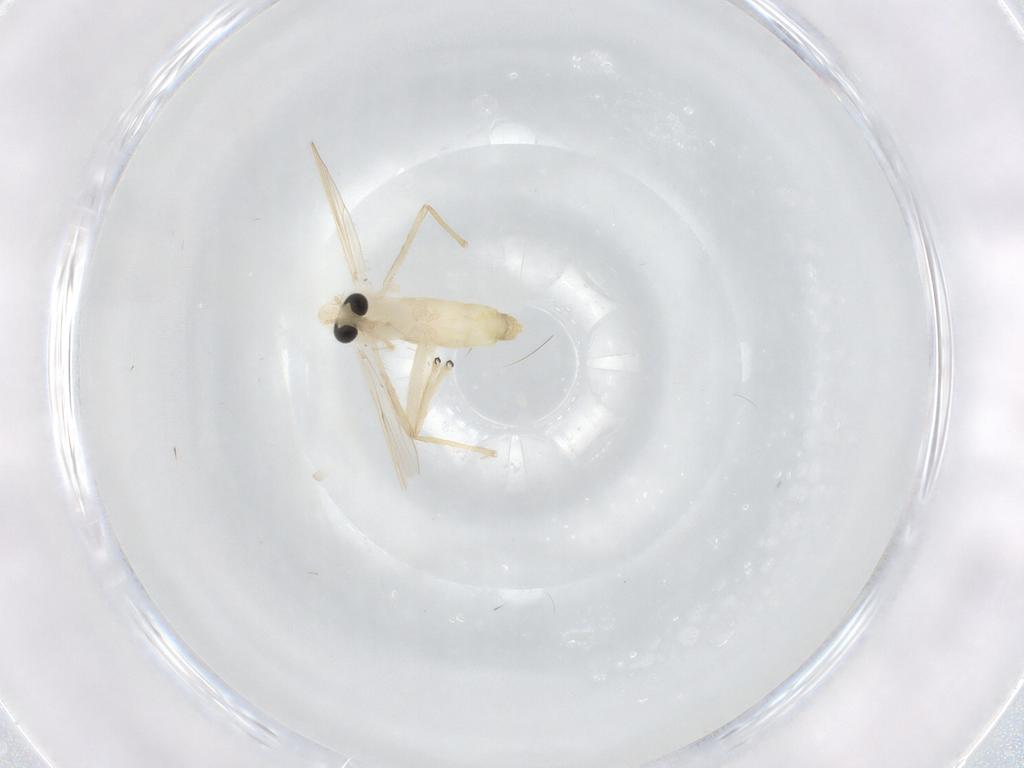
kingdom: Animalia
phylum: Arthropoda
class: Insecta
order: Diptera
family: Chironomidae
